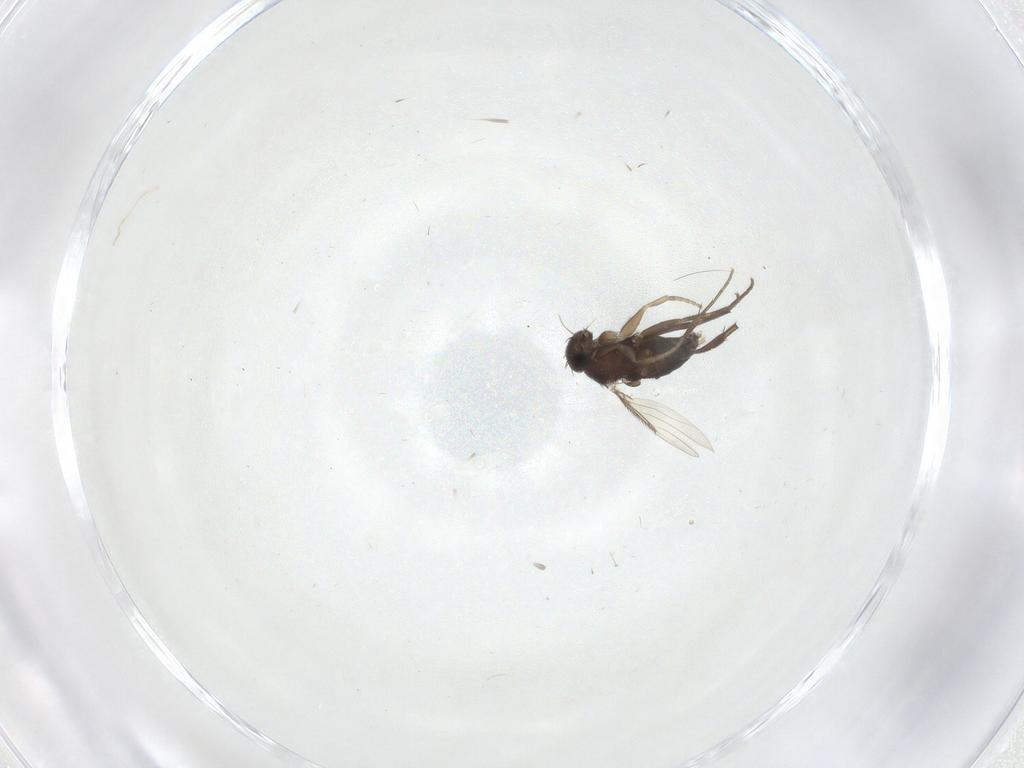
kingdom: Animalia
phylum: Arthropoda
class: Insecta
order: Diptera
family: Phoridae
